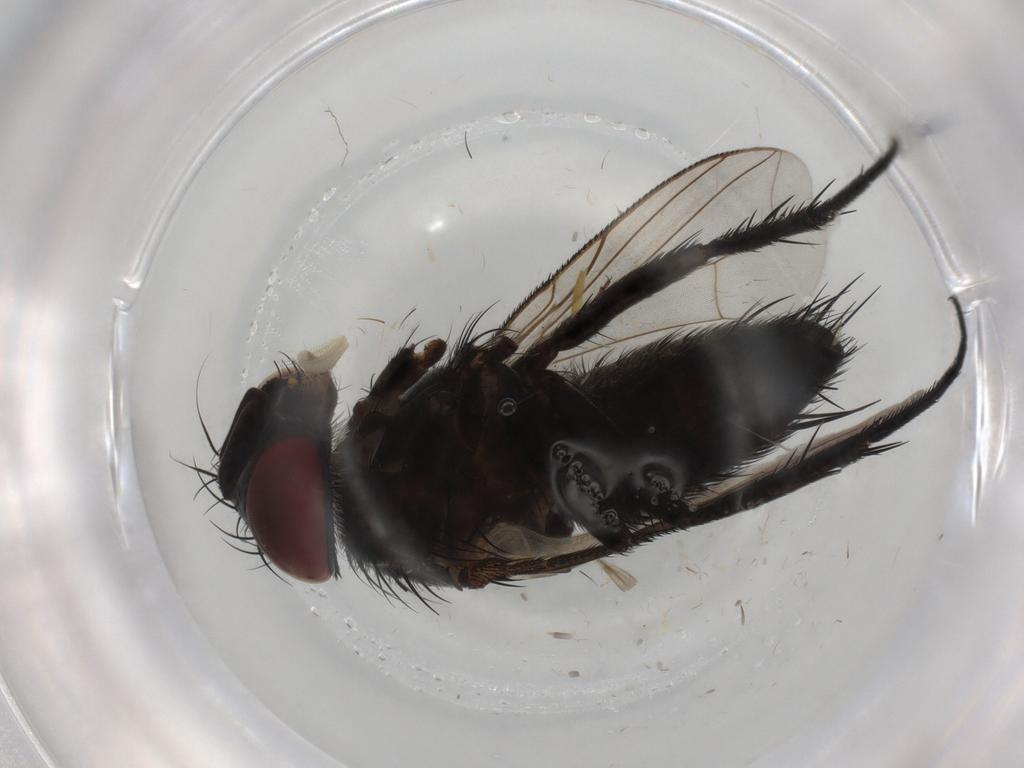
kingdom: Animalia
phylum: Arthropoda
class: Insecta
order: Diptera
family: Tachinidae
